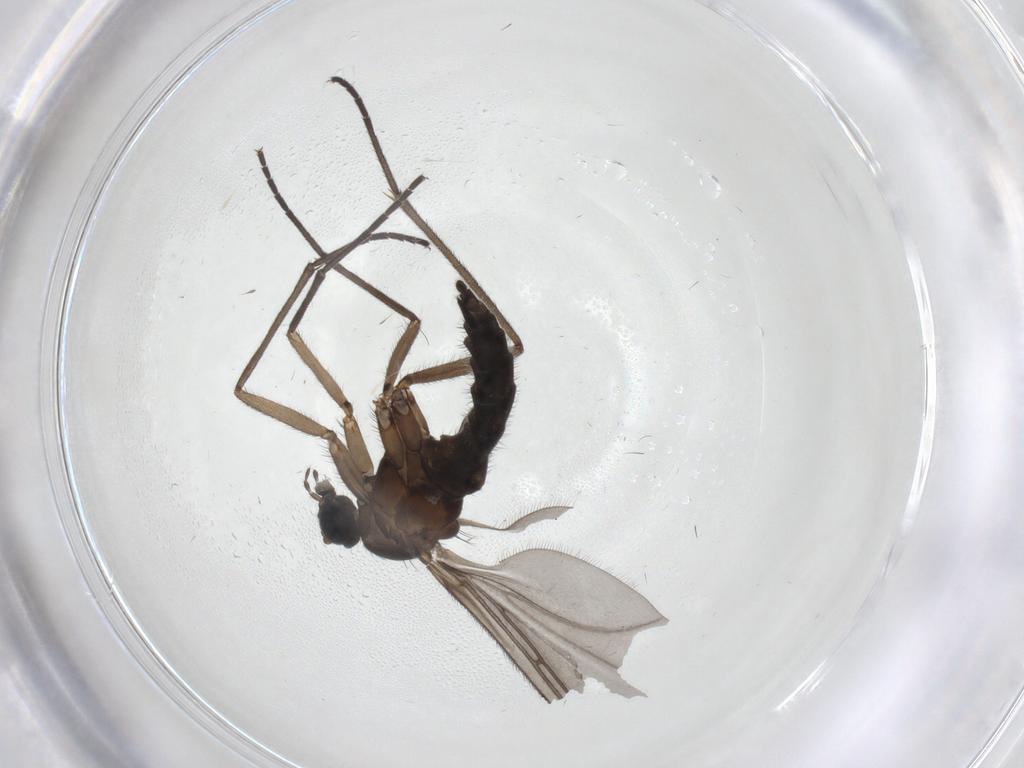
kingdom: Animalia
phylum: Arthropoda
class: Insecta
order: Diptera
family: Sciaridae
